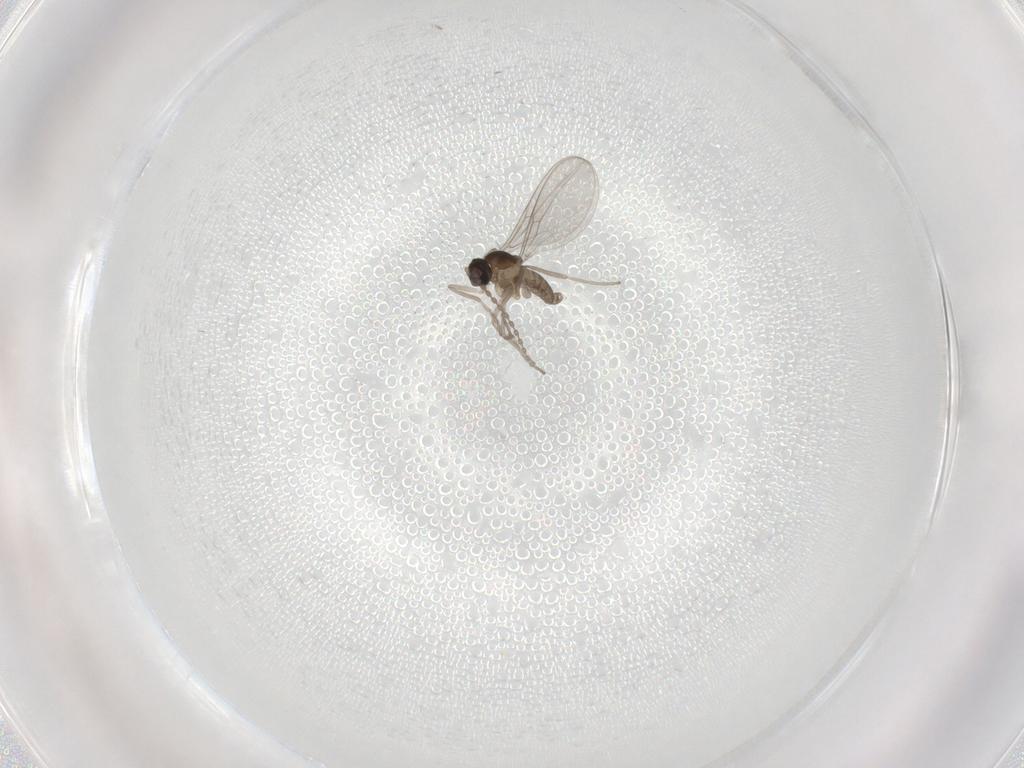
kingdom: Animalia
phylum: Arthropoda
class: Insecta
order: Diptera
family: Cecidomyiidae
